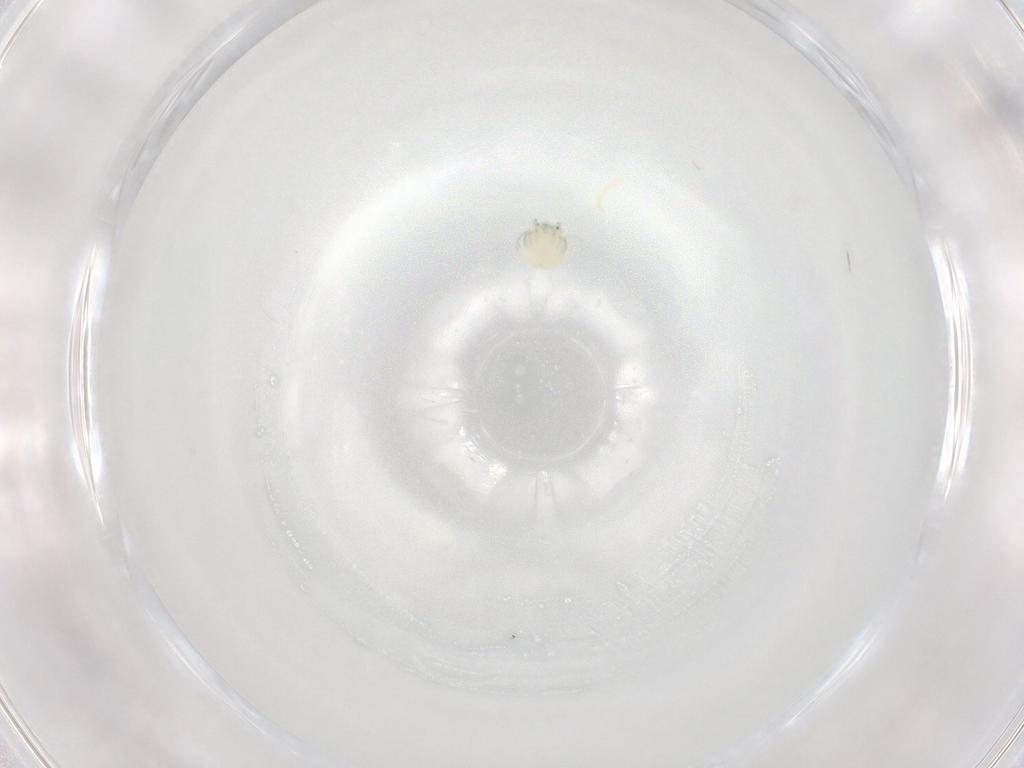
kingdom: Animalia
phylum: Arthropoda
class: Arachnida
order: Trombidiformes
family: Arrenuridae
